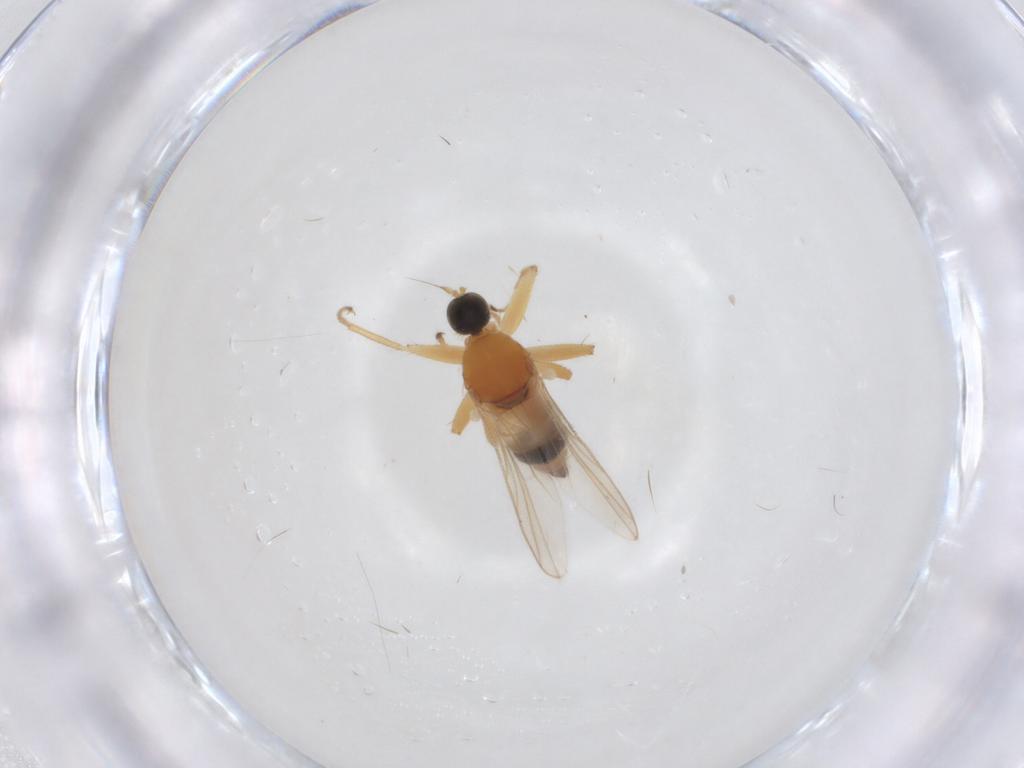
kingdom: Animalia
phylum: Arthropoda
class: Insecta
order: Diptera
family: Hybotidae
